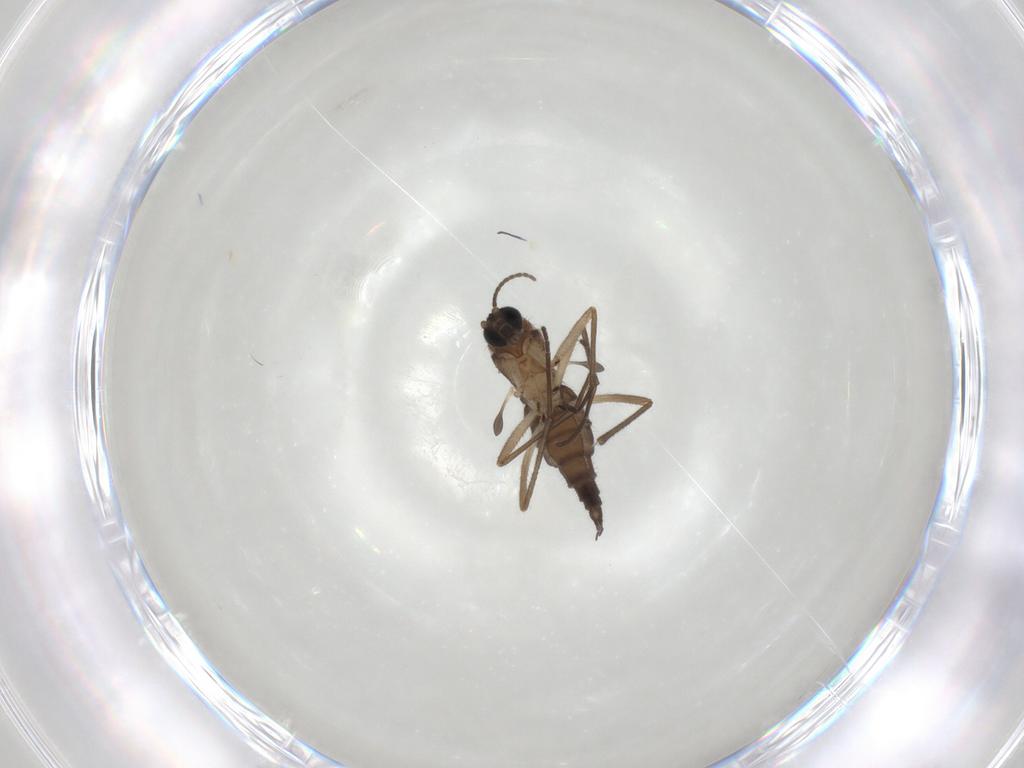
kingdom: Animalia
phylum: Arthropoda
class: Insecta
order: Diptera
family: Sciaridae
